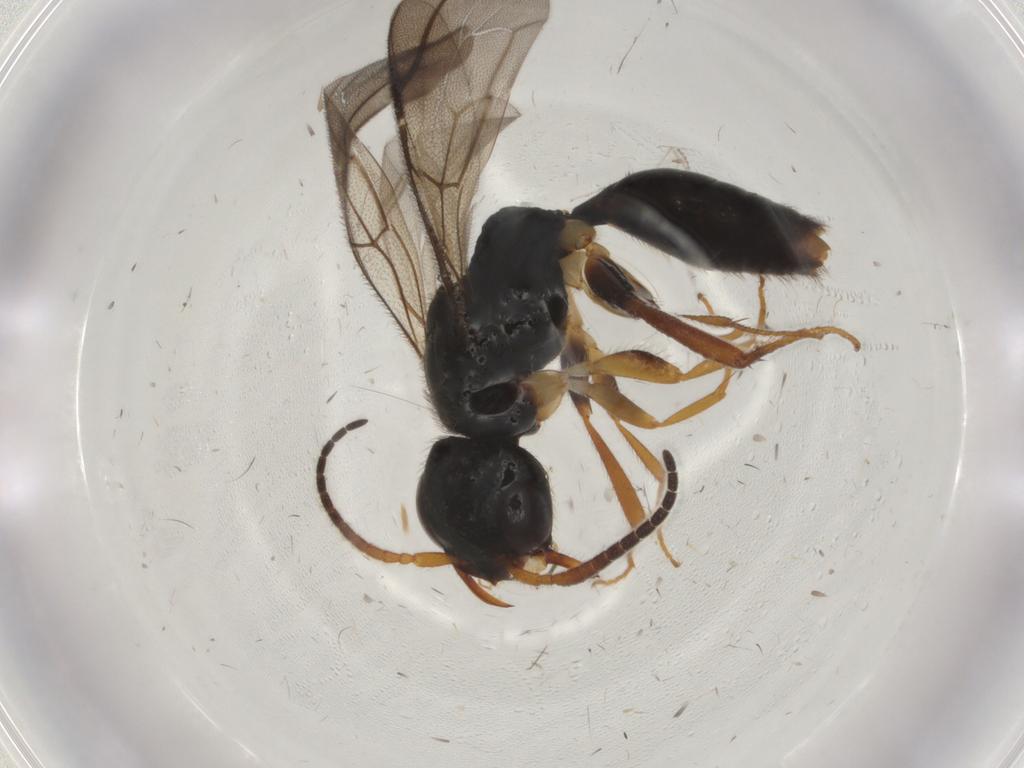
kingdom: Animalia
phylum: Arthropoda
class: Insecta
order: Hymenoptera
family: Bethylidae
